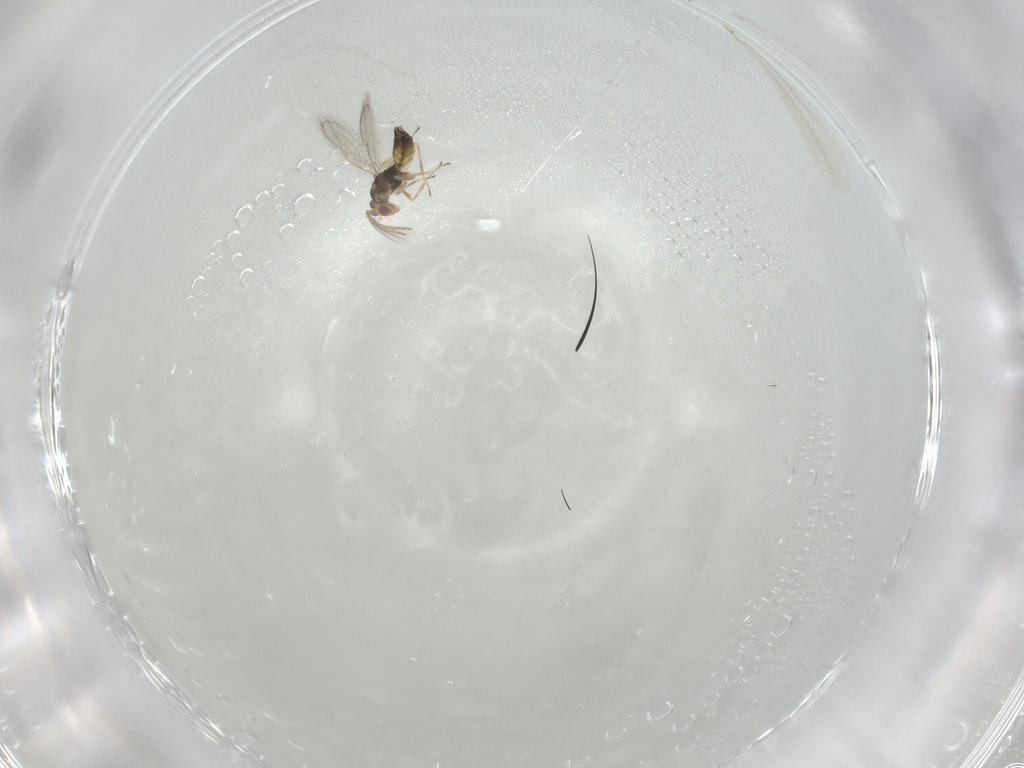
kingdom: Animalia
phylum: Arthropoda
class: Insecta
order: Hymenoptera
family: Eulophidae
